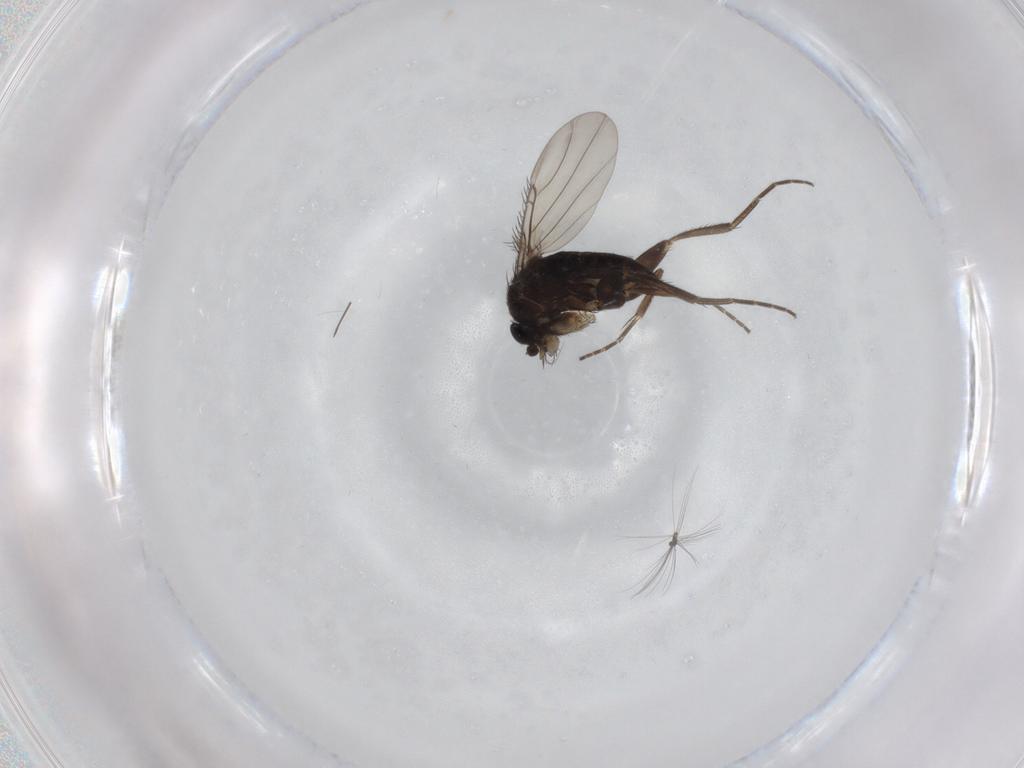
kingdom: Animalia
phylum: Arthropoda
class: Insecta
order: Diptera
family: Phoridae
